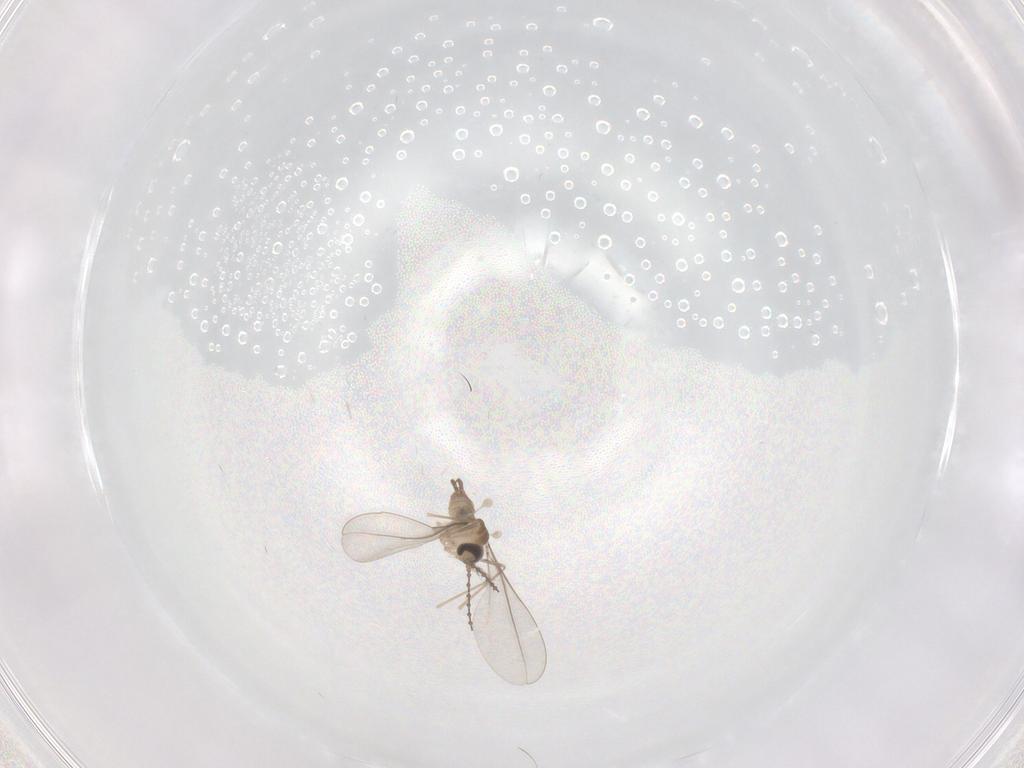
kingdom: Animalia
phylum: Arthropoda
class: Insecta
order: Diptera
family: Cecidomyiidae
